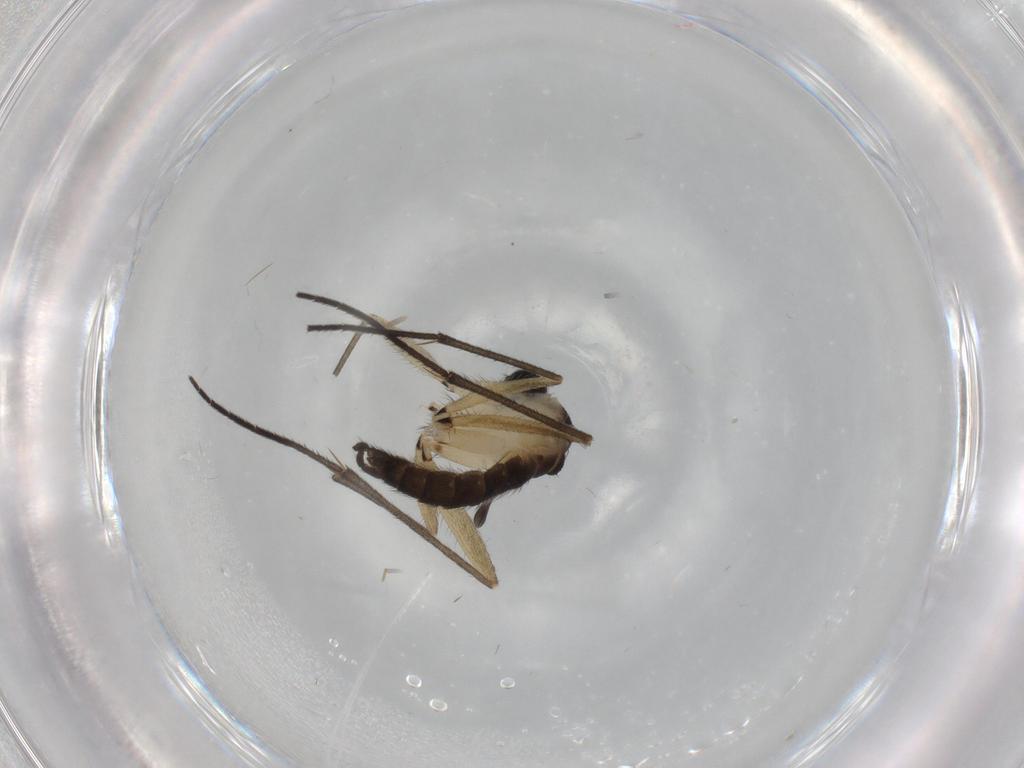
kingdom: Animalia
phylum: Arthropoda
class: Insecta
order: Diptera
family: Sciaridae
